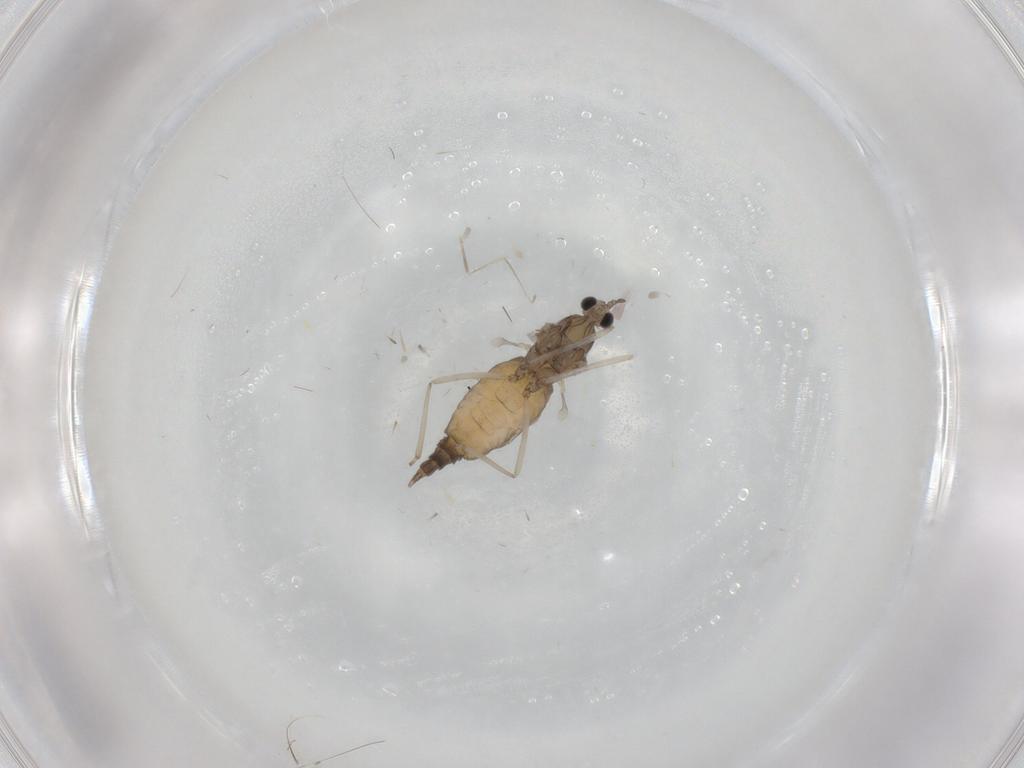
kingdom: Animalia
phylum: Arthropoda
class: Insecta
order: Diptera
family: Cecidomyiidae
